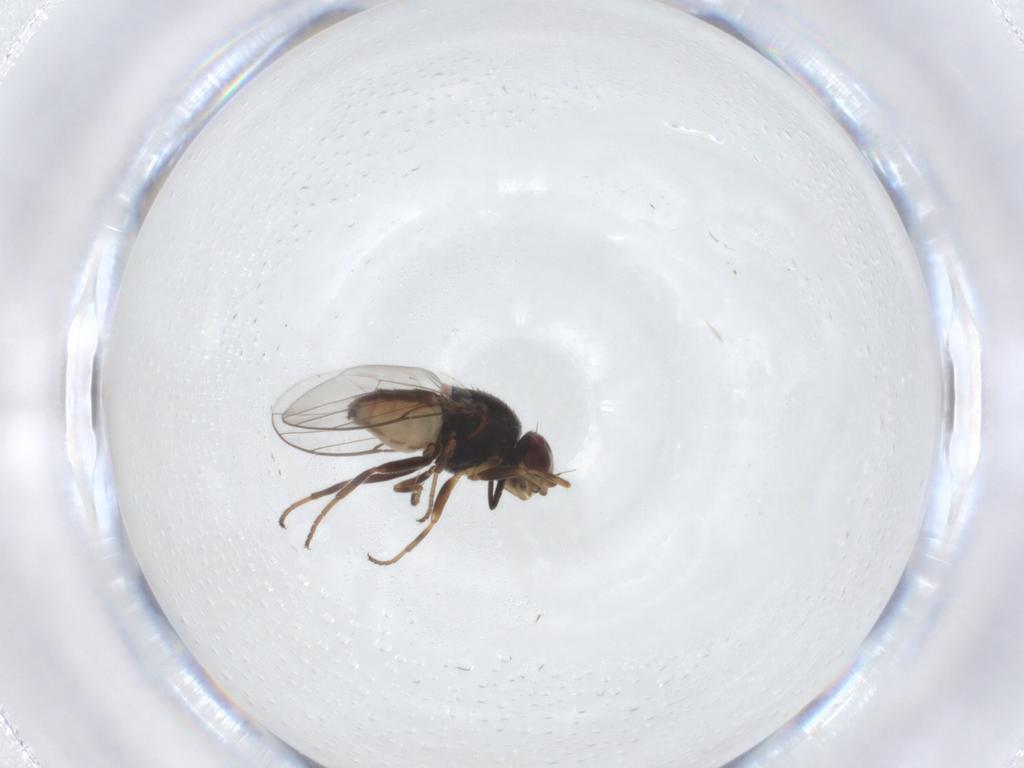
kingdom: Animalia
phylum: Arthropoda
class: Insecta
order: Diptera
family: Chloropidae
